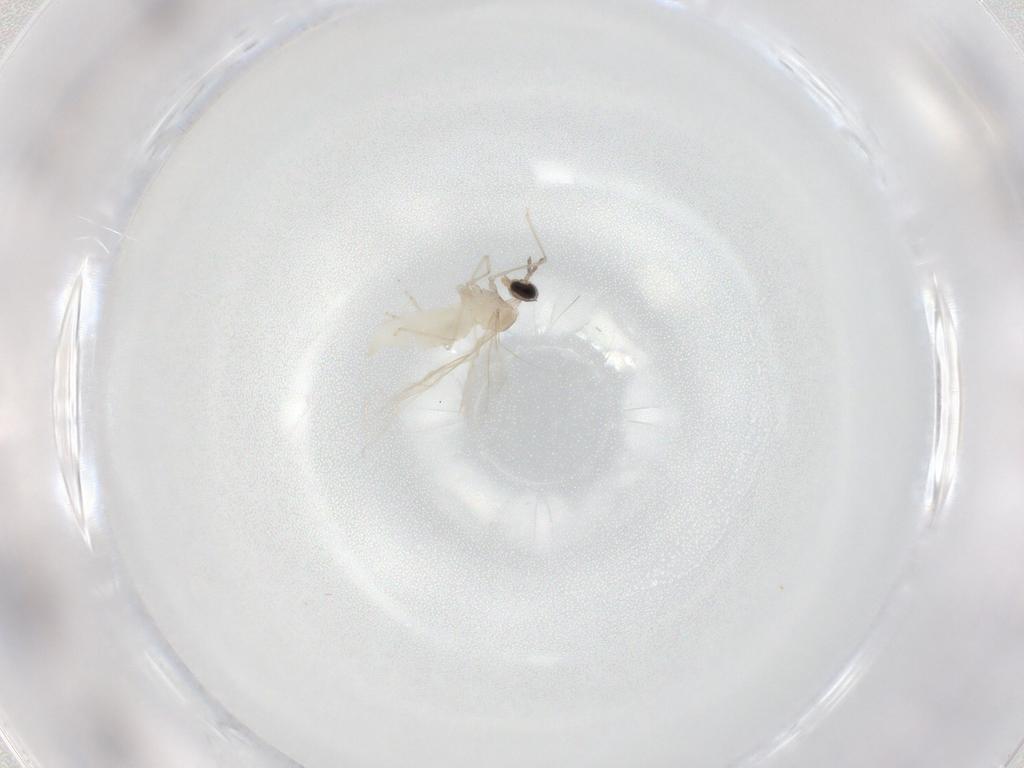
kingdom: Animalia
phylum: Arthropoda
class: Insecta
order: Diptera
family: Cecidomyiidae
